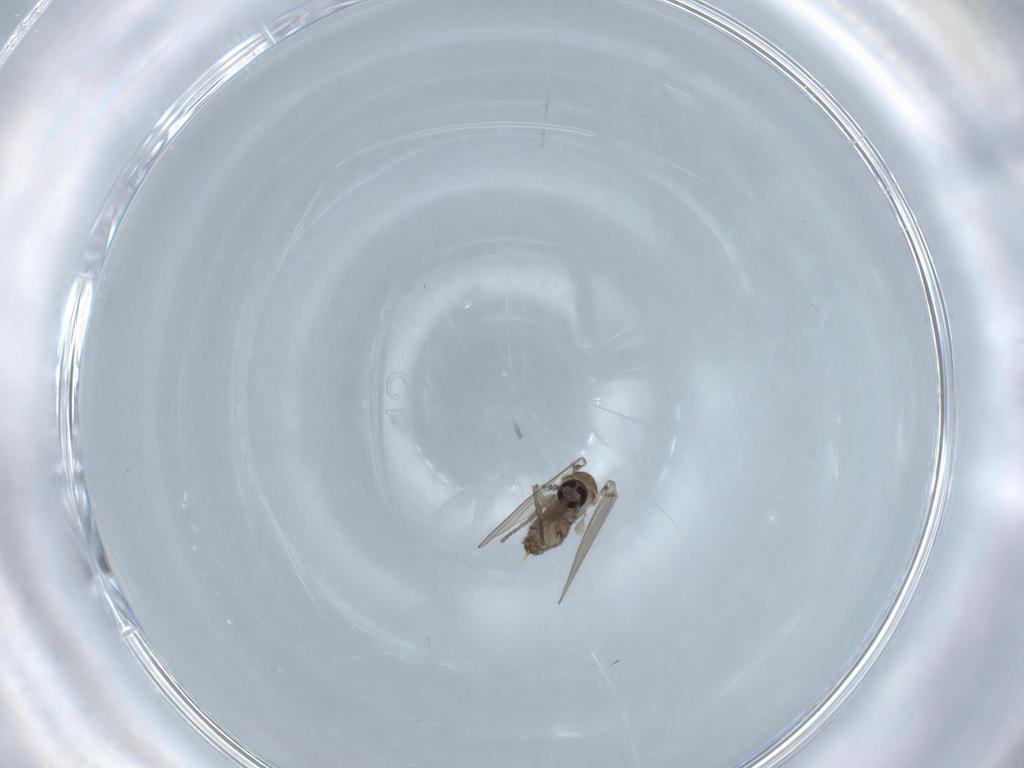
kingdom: Animalia
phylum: Arthropoda
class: Insecta
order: Diptera
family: Psychodidae
